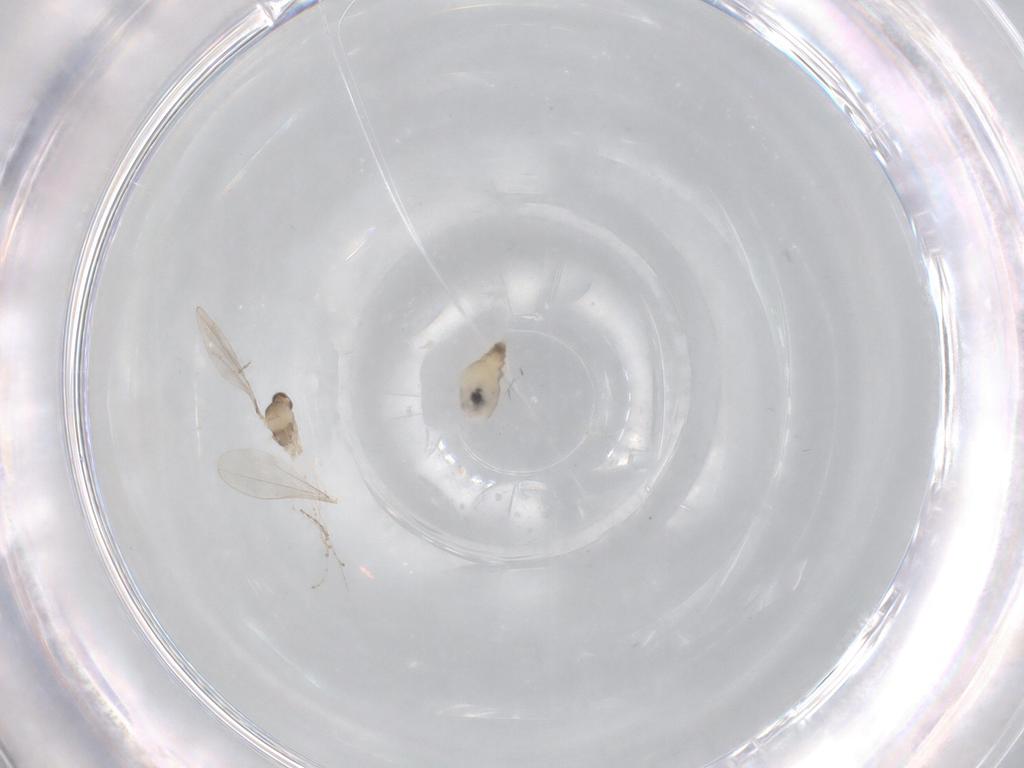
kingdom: Animalia
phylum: Arthropoda
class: Insecta
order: Diptera
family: Cecidomyiidae
